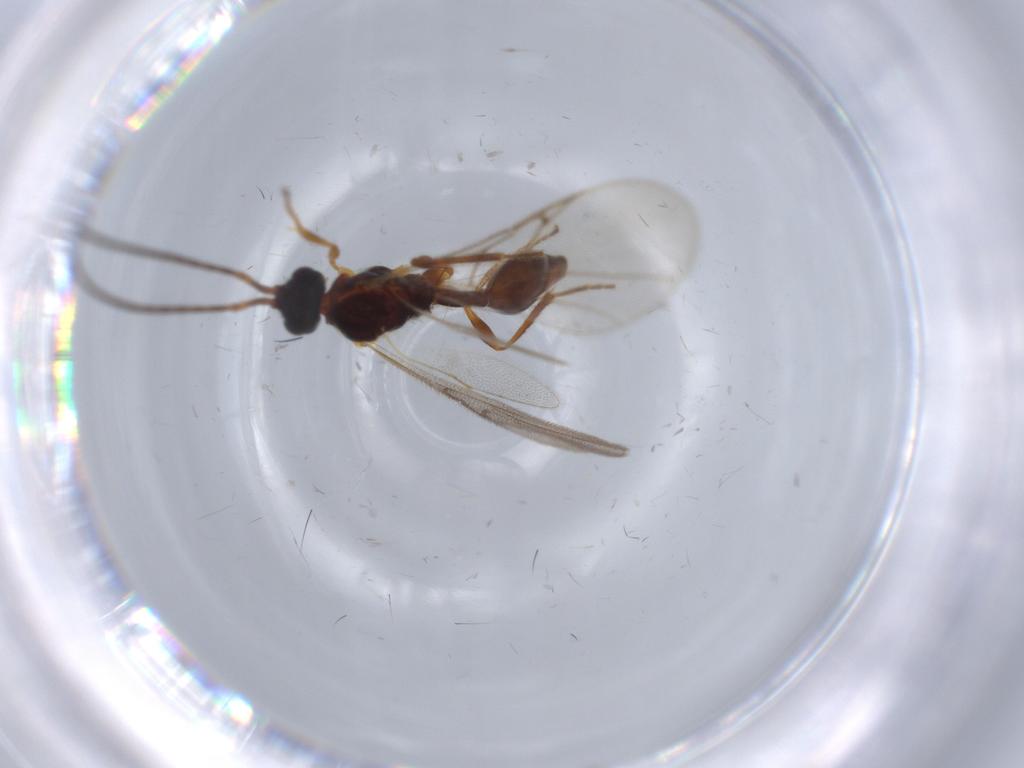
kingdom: Animalia
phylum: Arthropoda
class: Insecta
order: Hymenoptera
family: Diapriidae
